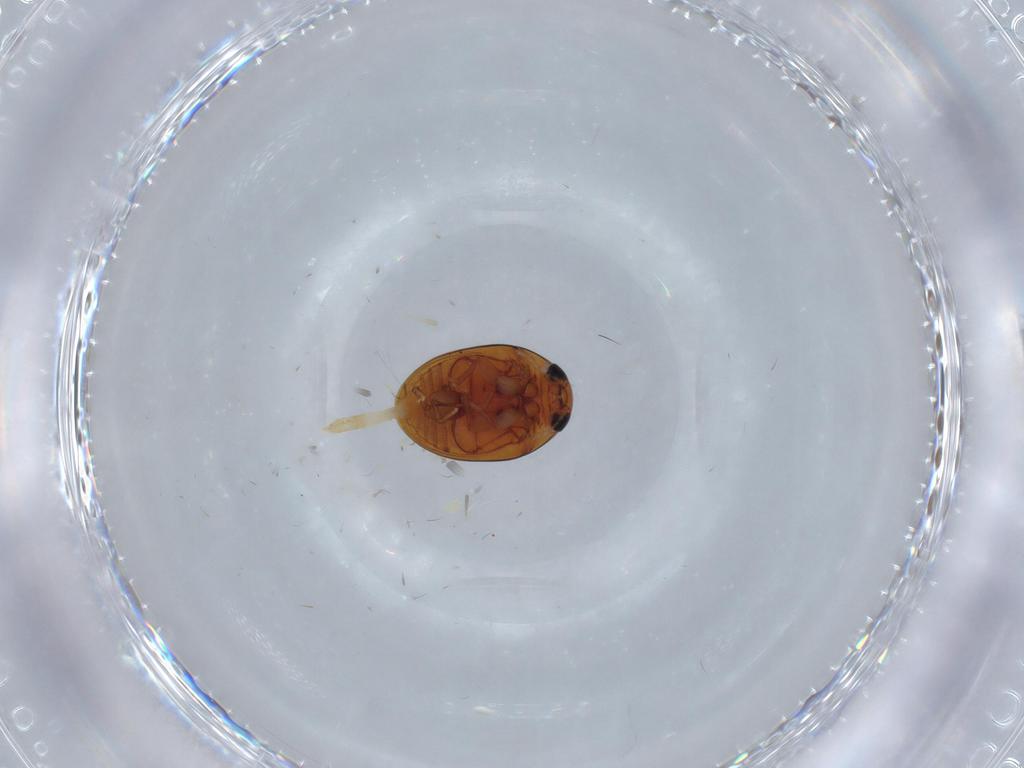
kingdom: Animalia
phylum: Arthropoda
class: Insecta
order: Coleoptera
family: Phalacridae
